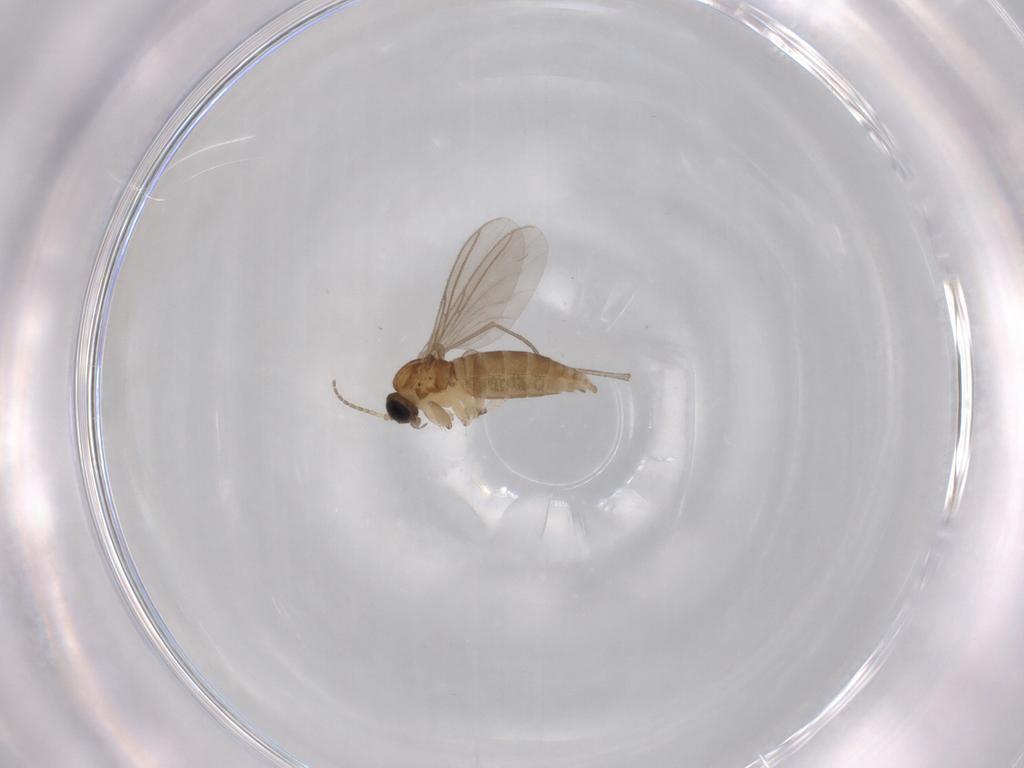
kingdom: Animalia
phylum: Arthropoda
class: Insecta
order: Diptera
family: Sciaridae
